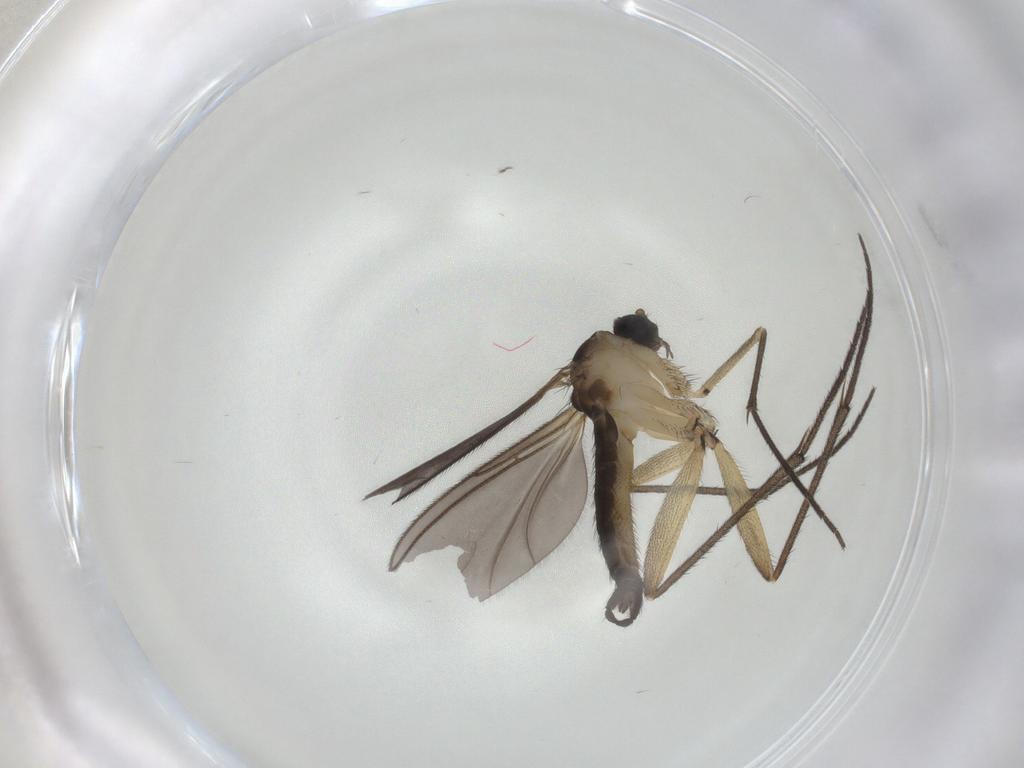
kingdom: Animalia
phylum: Arthropoda
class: Insecta
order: Diptera
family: Sciaridae
